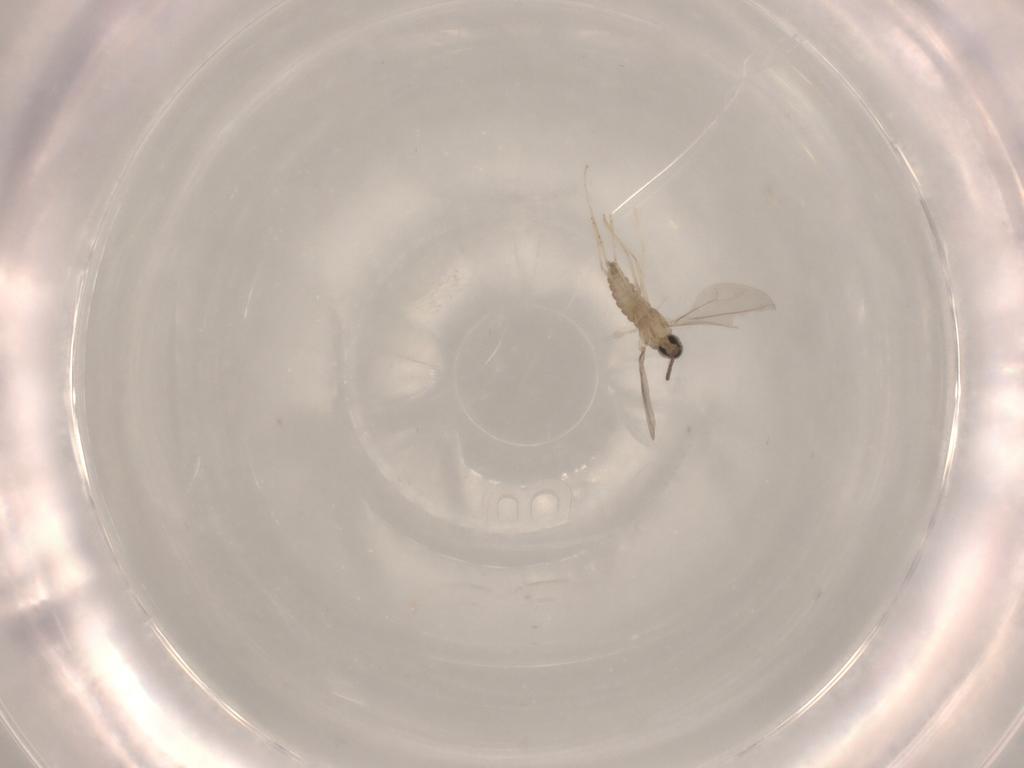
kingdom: Animalia
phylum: Arthropoda
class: Insecta
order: Diptera
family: Cecidomyiidae
